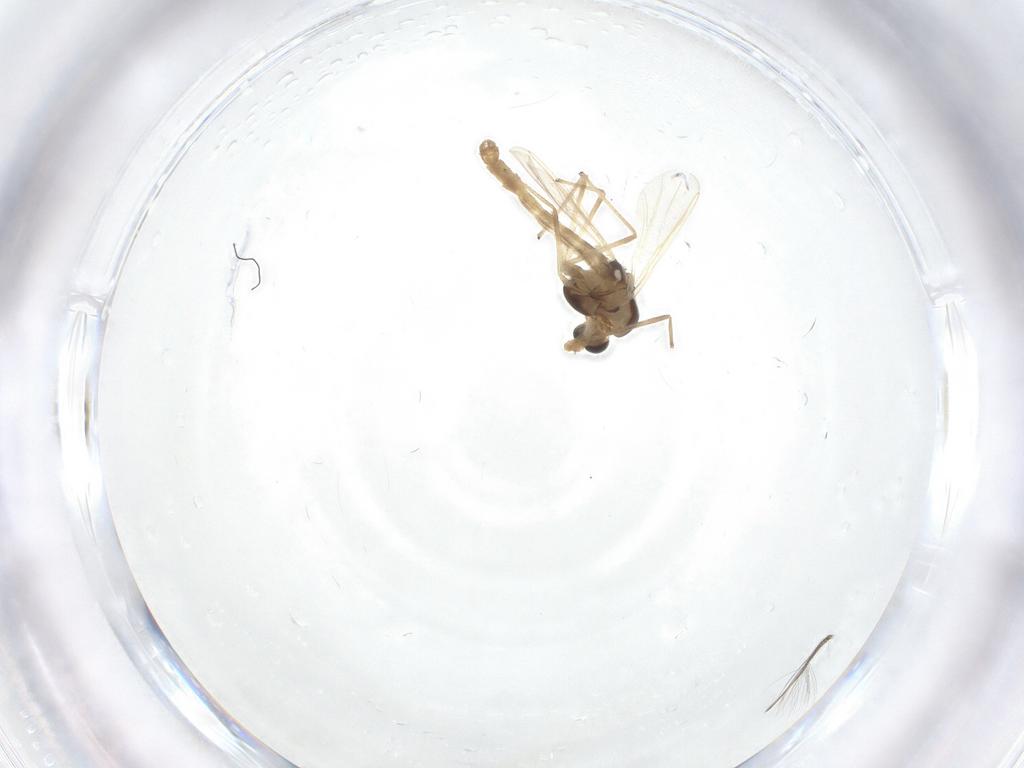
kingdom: Animalia
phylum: Arthropoda
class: Insecta
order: Diptera
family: Chironomidae
